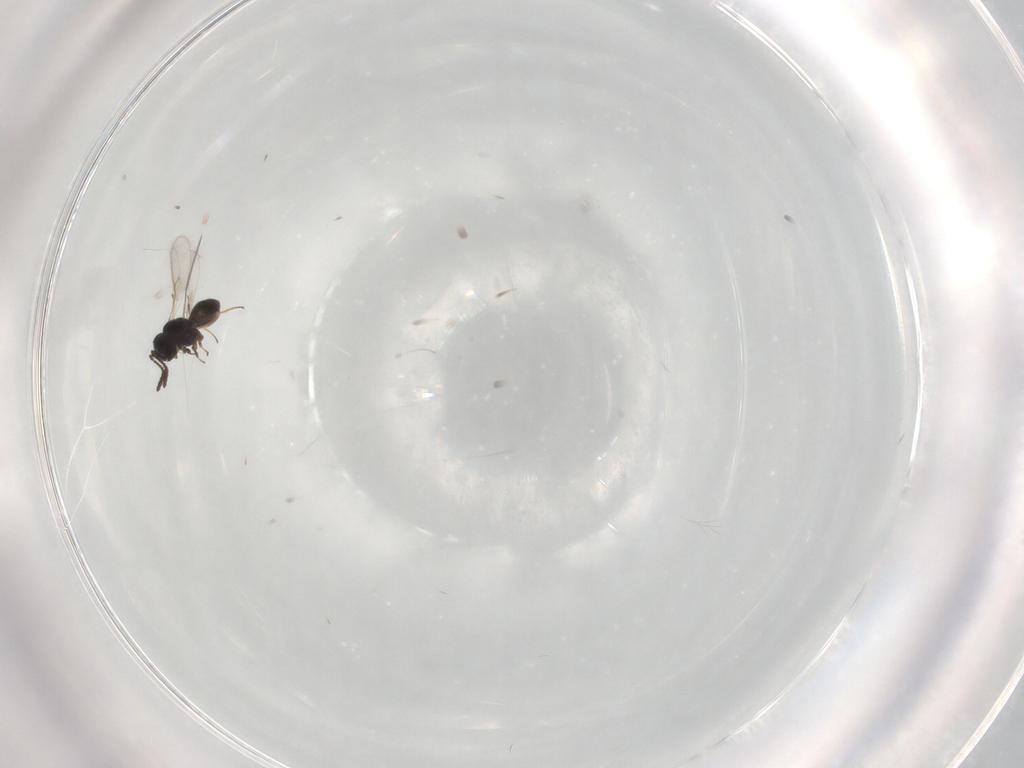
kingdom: Animalia
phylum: Arthropoda
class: Insecta
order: Hymenoptera
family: Scelionidae
